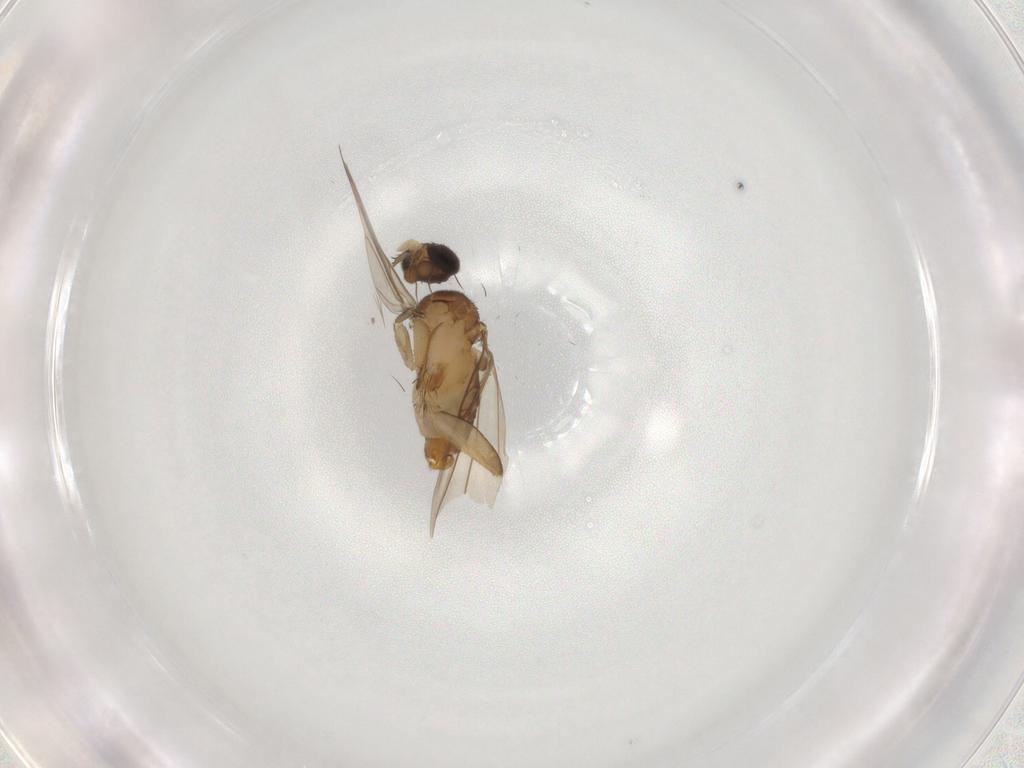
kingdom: Animalia
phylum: Arthropoda
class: Insecta
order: Diptera
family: Phoridae
